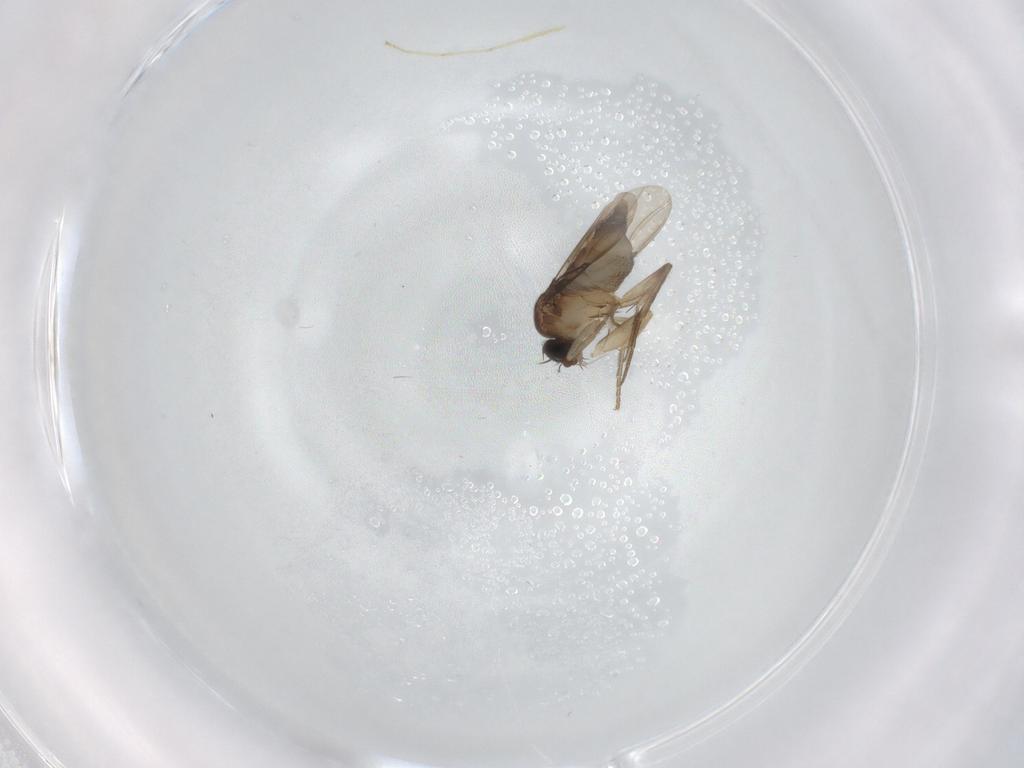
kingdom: Animalia
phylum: Arthropoda
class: Insecta
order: Diptera
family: Phoridae
